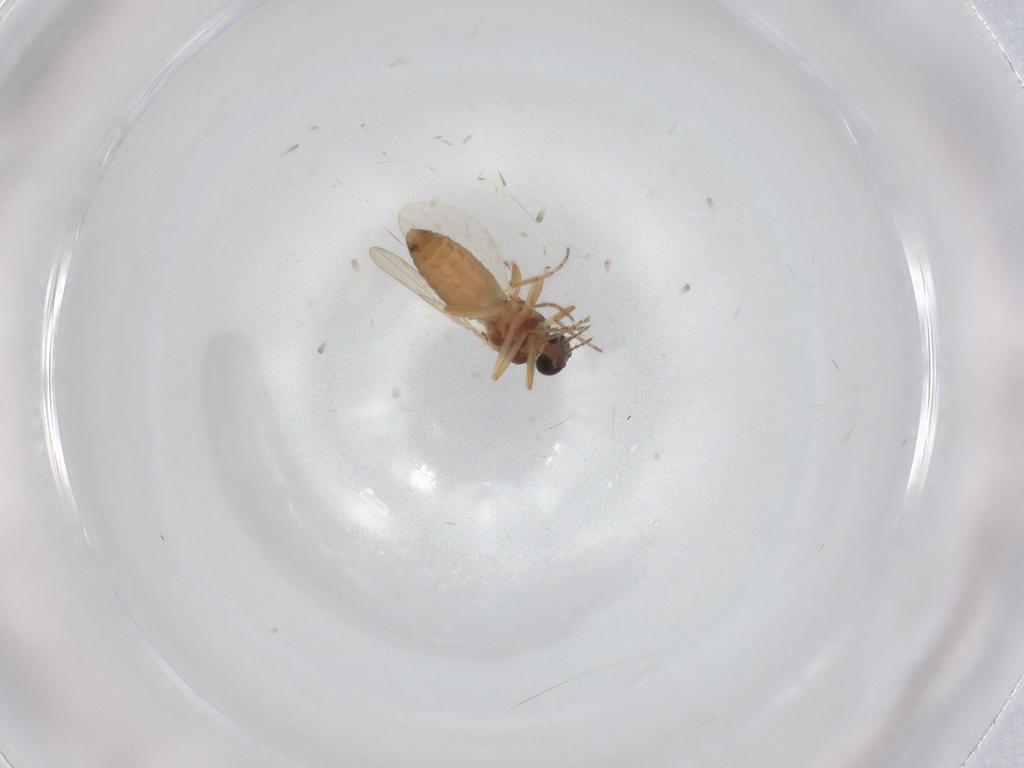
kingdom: Animalia
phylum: Arthropoda
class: Insecta
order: Diptera
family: Ceratopogonidae
